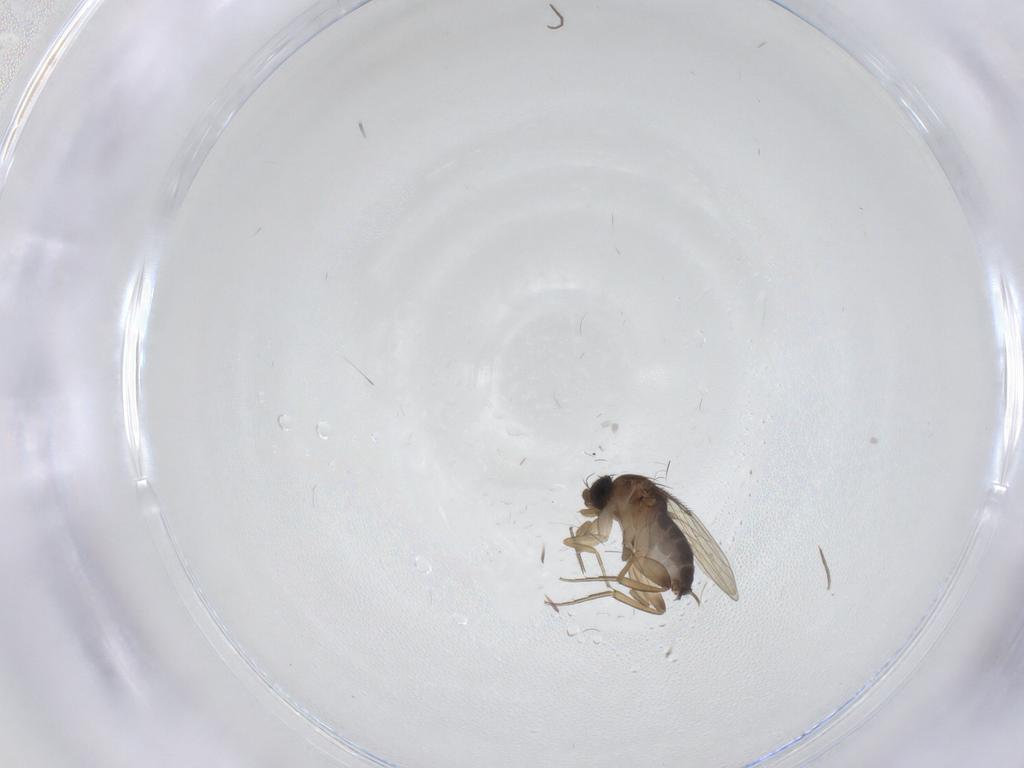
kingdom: Animalia
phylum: Arthropoda
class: Insecta
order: Diptera
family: Chironomidae
